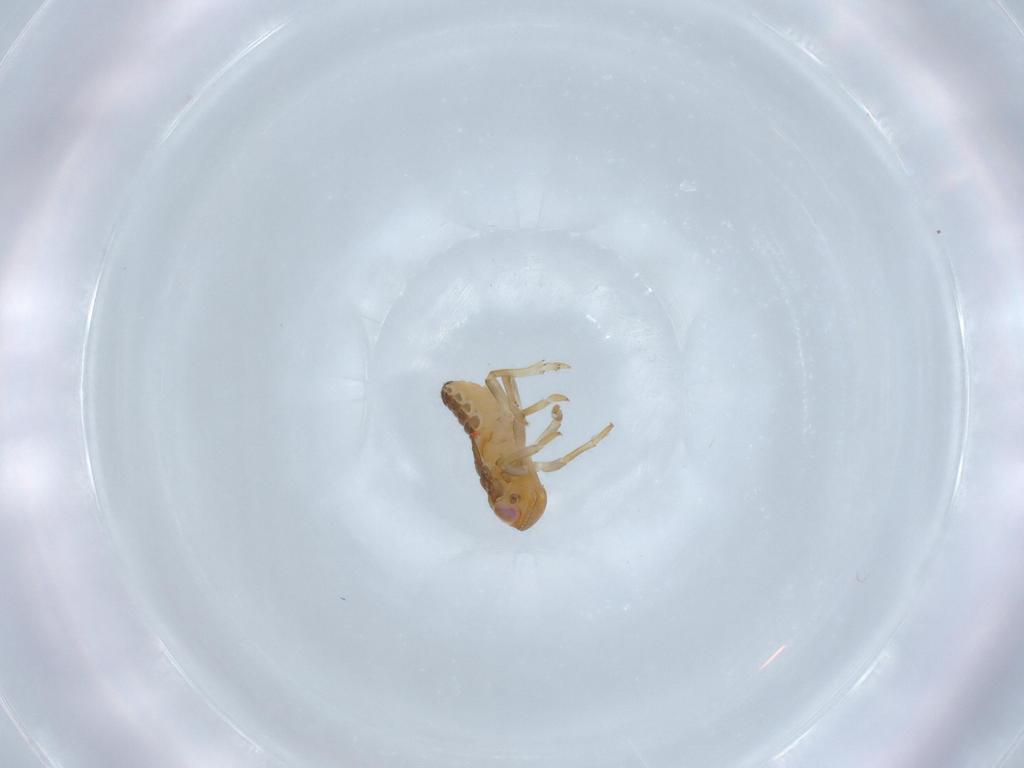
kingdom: Animalia
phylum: Arthropoda
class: Insecta
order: Hemiptera
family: Issidae
